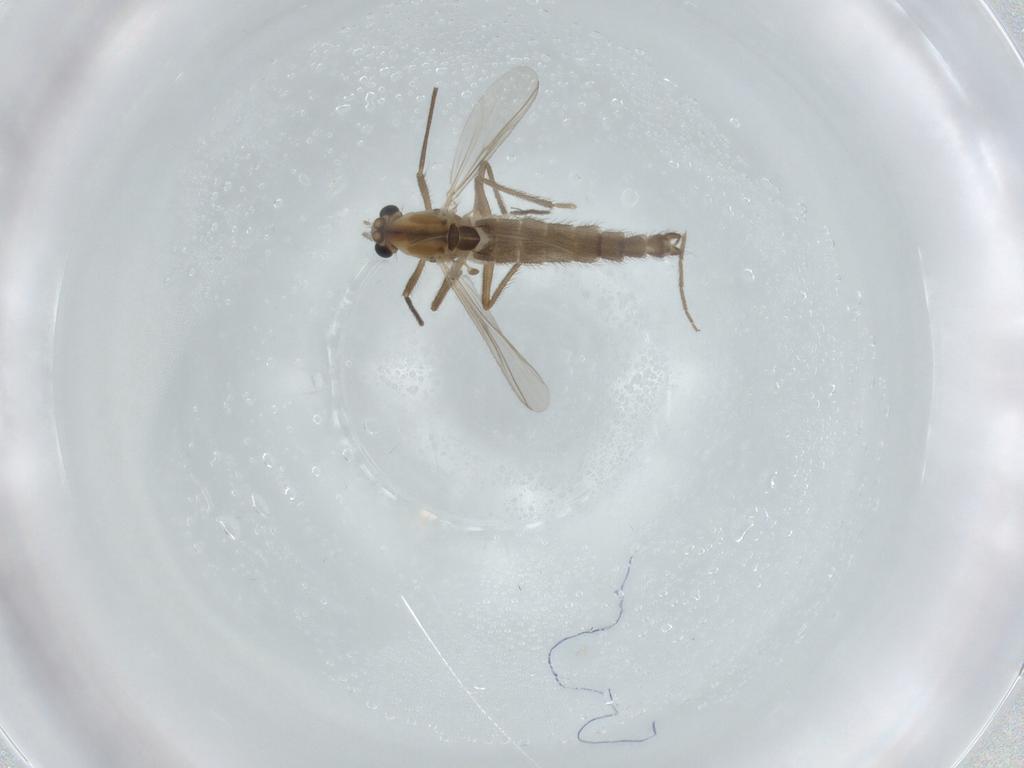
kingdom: Animalia
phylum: Arthropoda
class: Insecta
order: Diptera
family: Chironomidae
